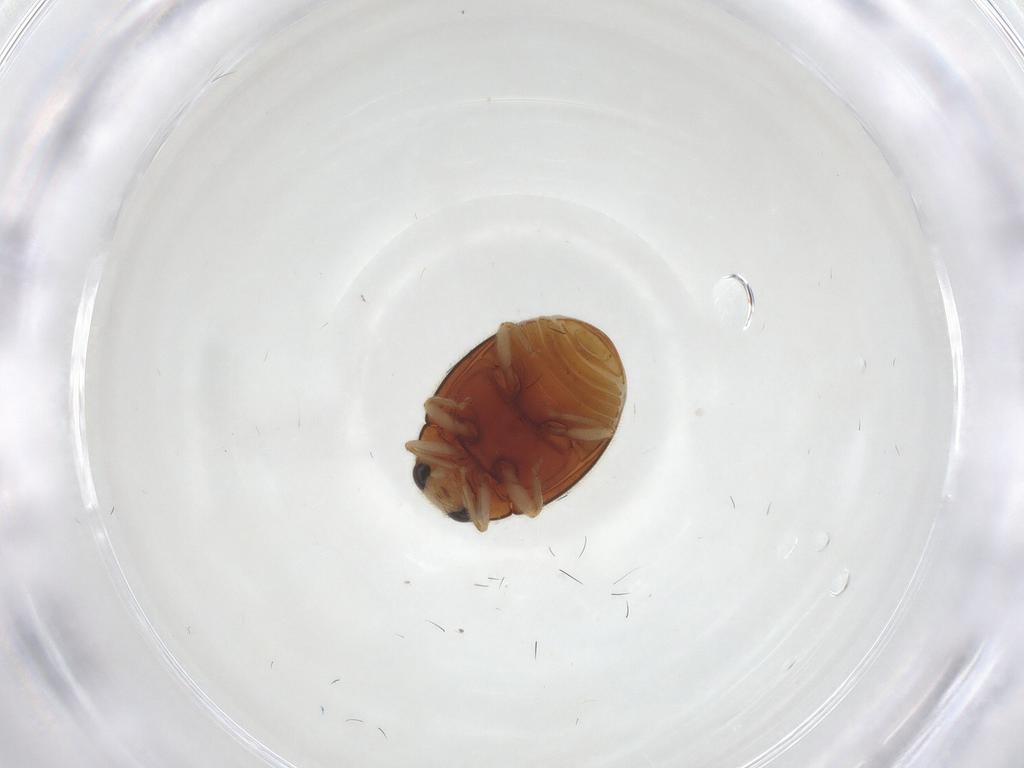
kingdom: Animalia
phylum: Arthropoda
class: Insecta
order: Coleoptera
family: Coccinellidae
